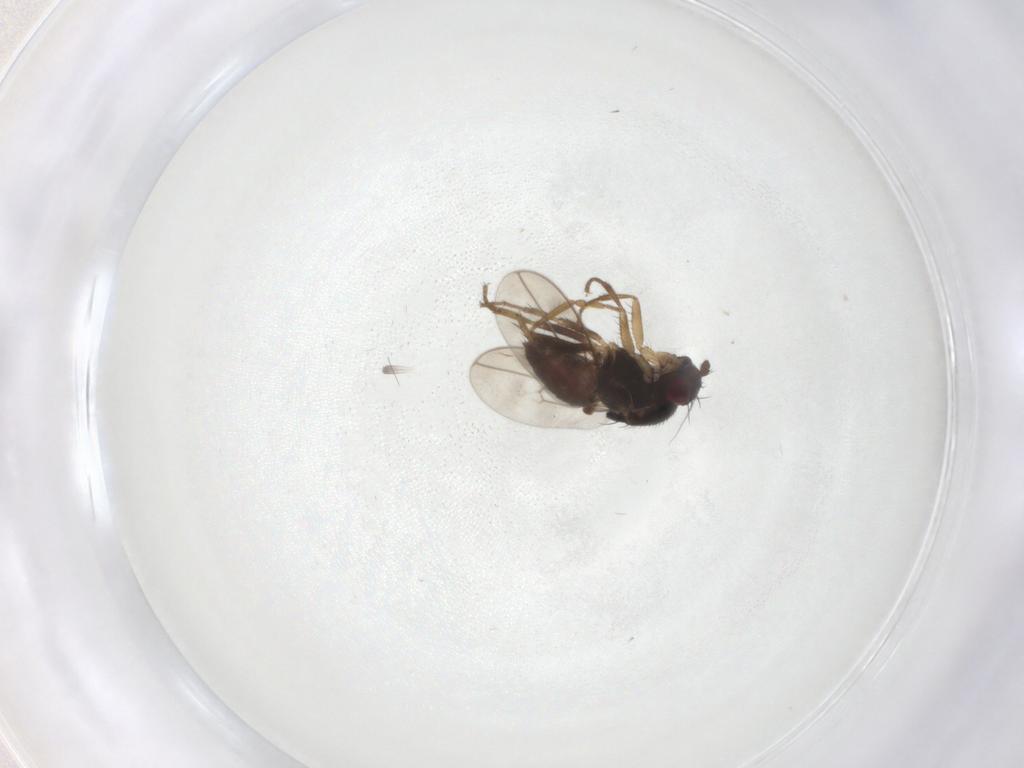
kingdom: Animalia
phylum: Arthropoda
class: Insecta
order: Diptera
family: Sphaeroceridae
